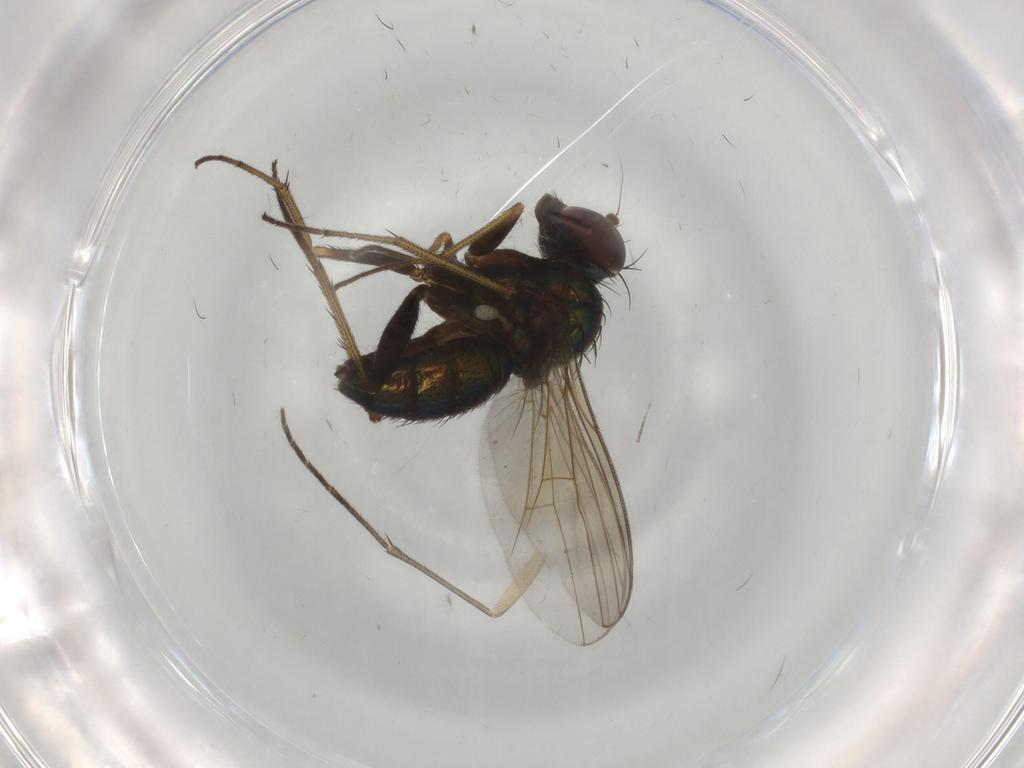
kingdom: Animalia
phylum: Arthropoda
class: Insecta
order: Diptera
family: Dolichopodidae
